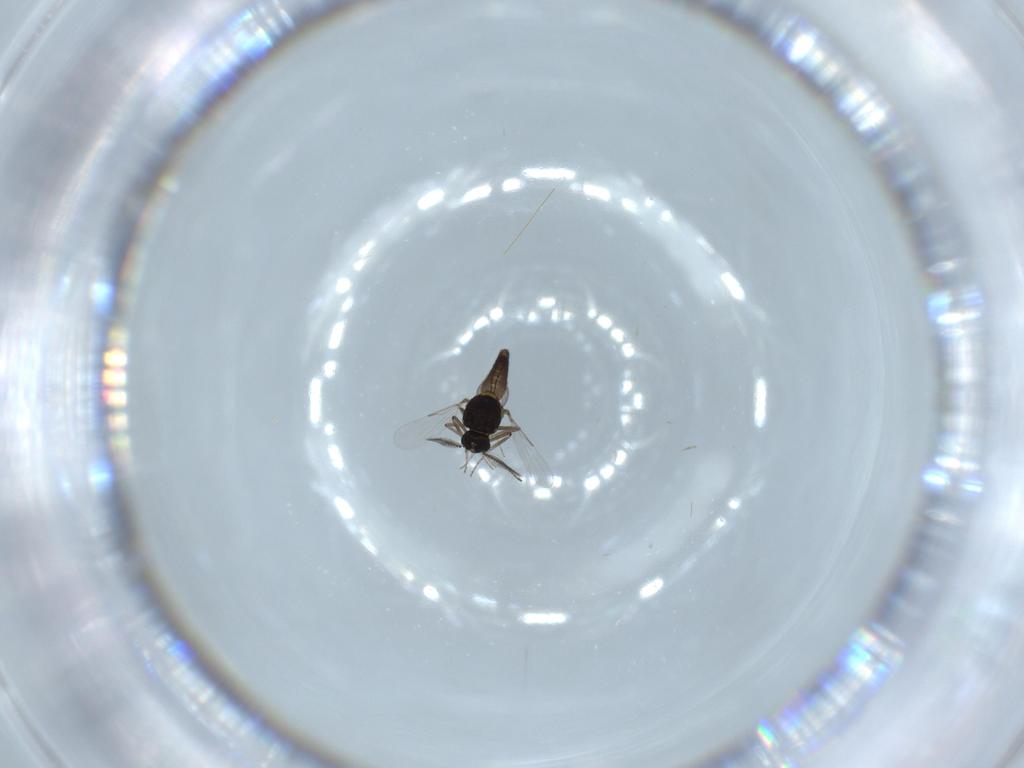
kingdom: Animalia
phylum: Arthropoda
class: Insecta
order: Diptera
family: Ceratopogonidae
